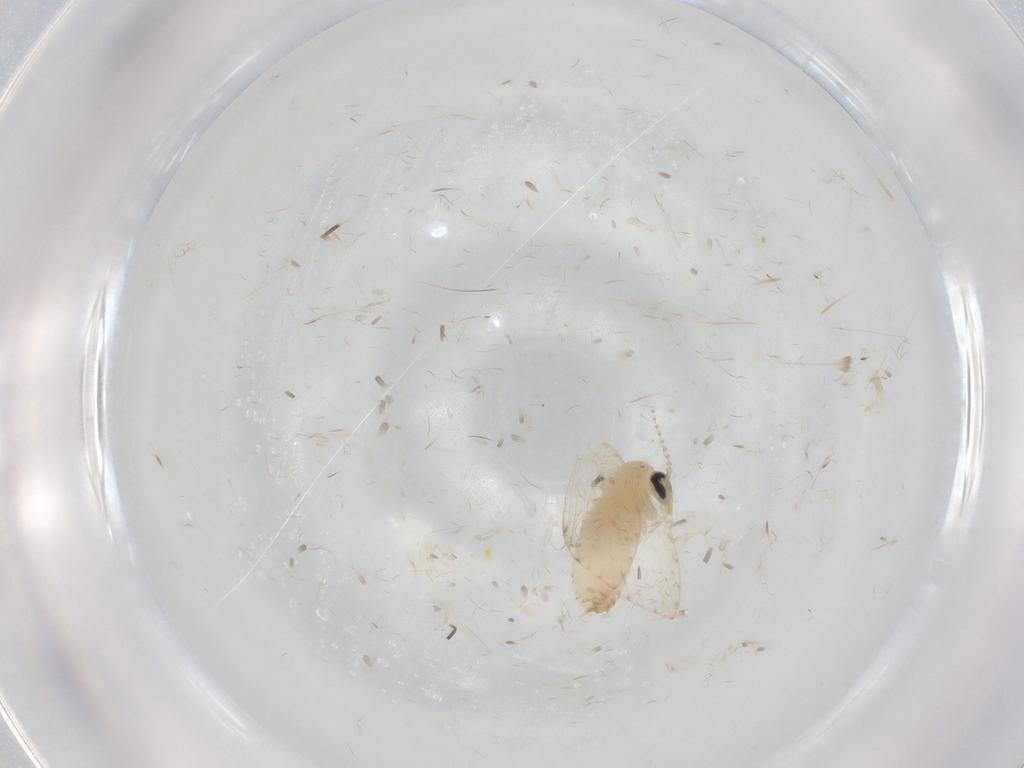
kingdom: Animalia
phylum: Arthropoda
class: Insecta
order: Diptera
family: Psychodidae
